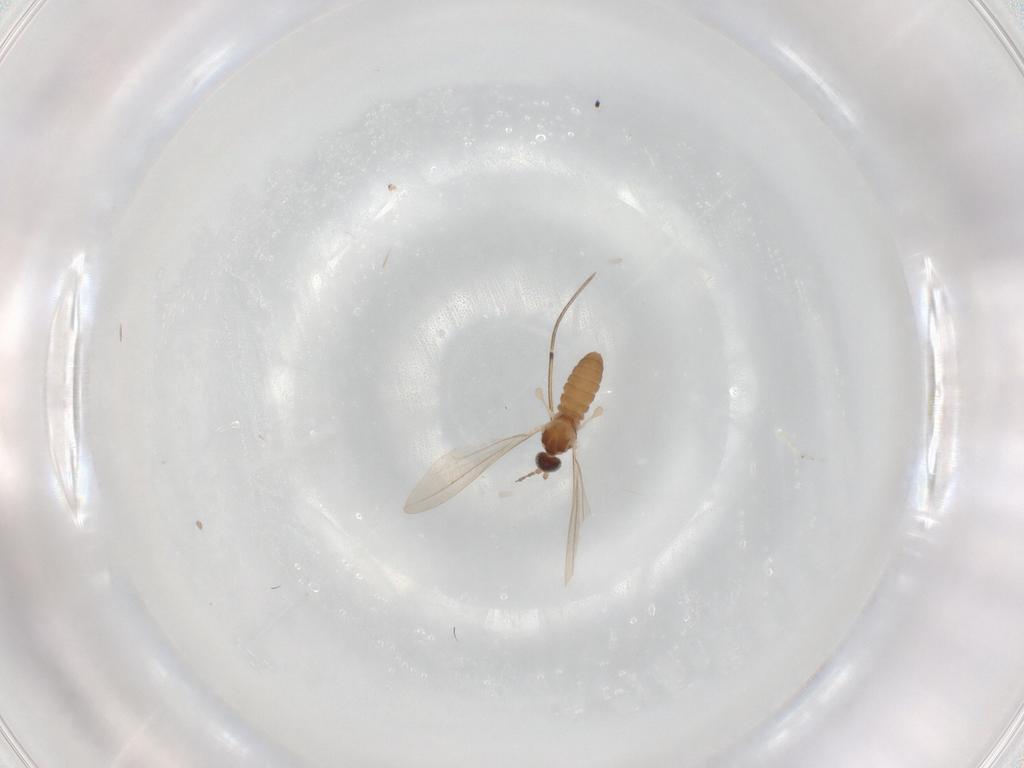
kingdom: Animalia
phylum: Arthropoda
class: Insecta
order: Diptera
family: Cecidomyiidae
